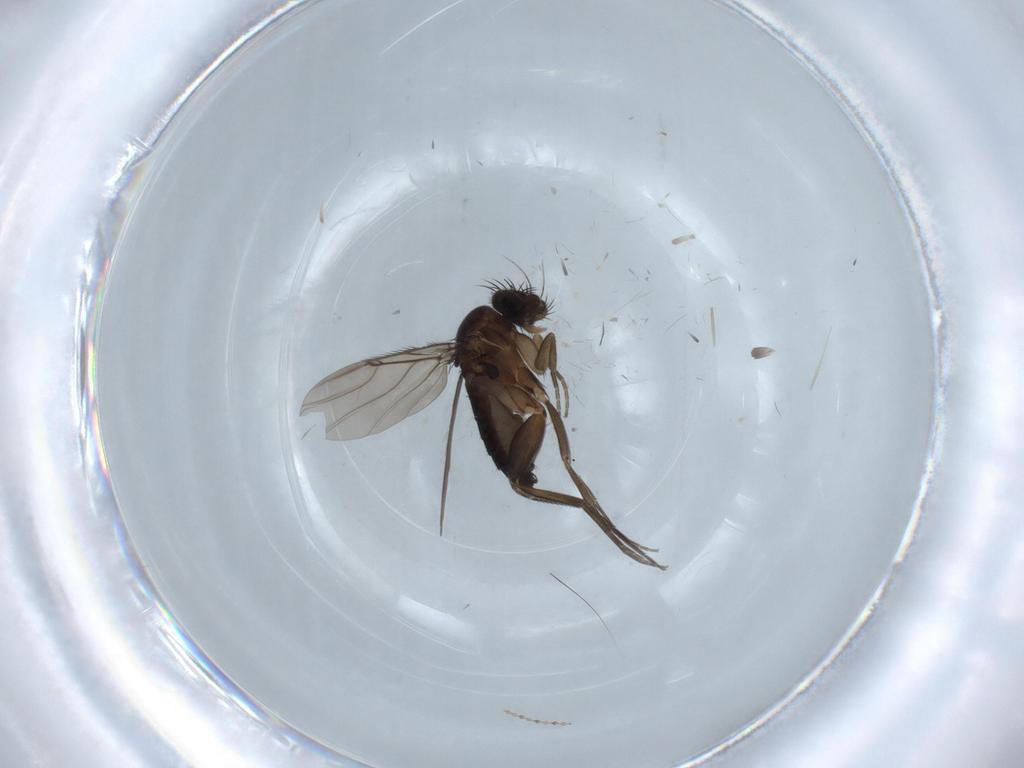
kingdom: Animalia
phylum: Arthropoda
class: Insecta
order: Diptera
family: Phoridae
